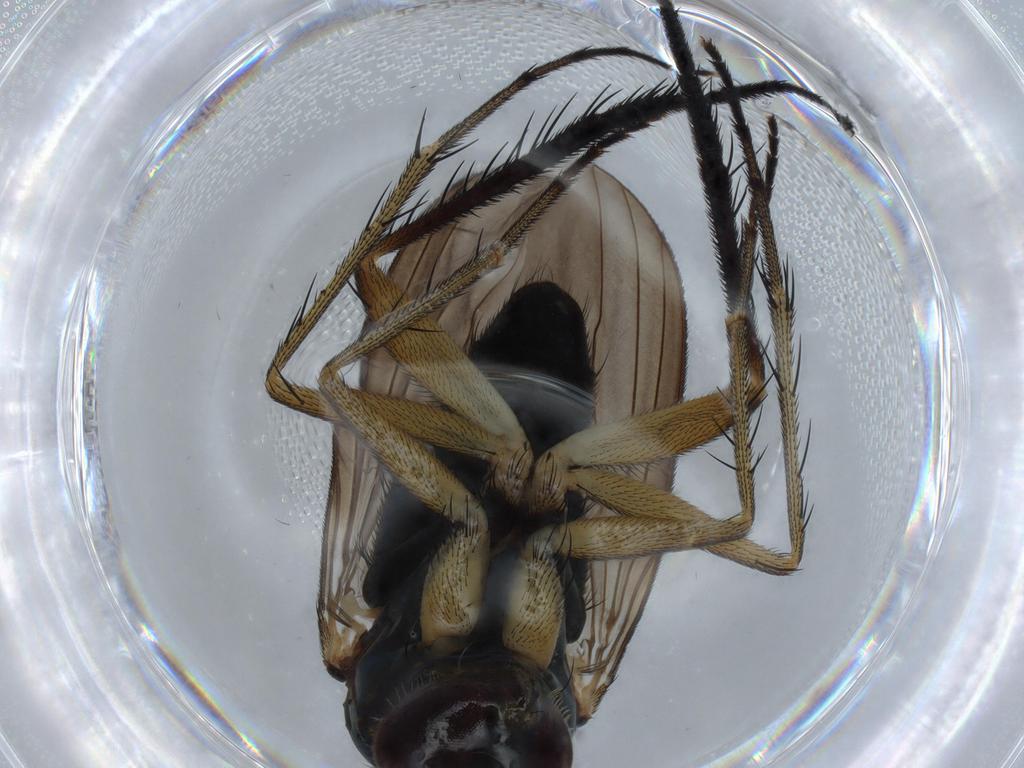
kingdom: Animalia
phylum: Arthropoda
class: Insecta
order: Diptera
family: Dolichopodidae
